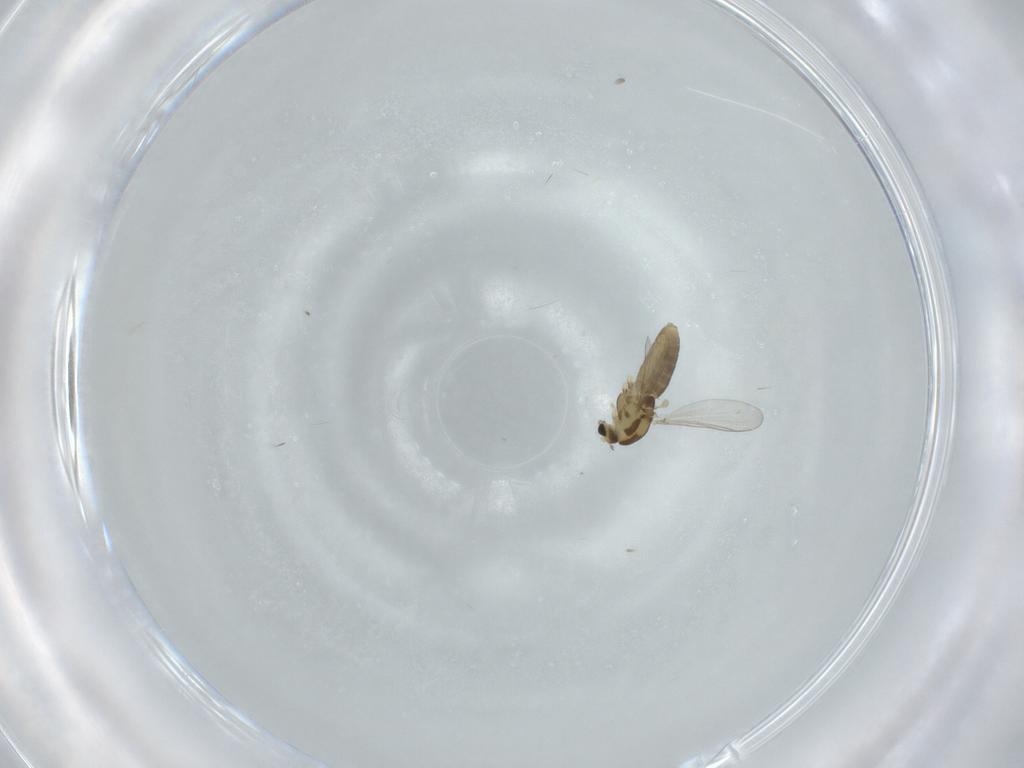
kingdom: Animalia
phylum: Arthropoda
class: Insecta
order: Diptera
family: Chironomidae
